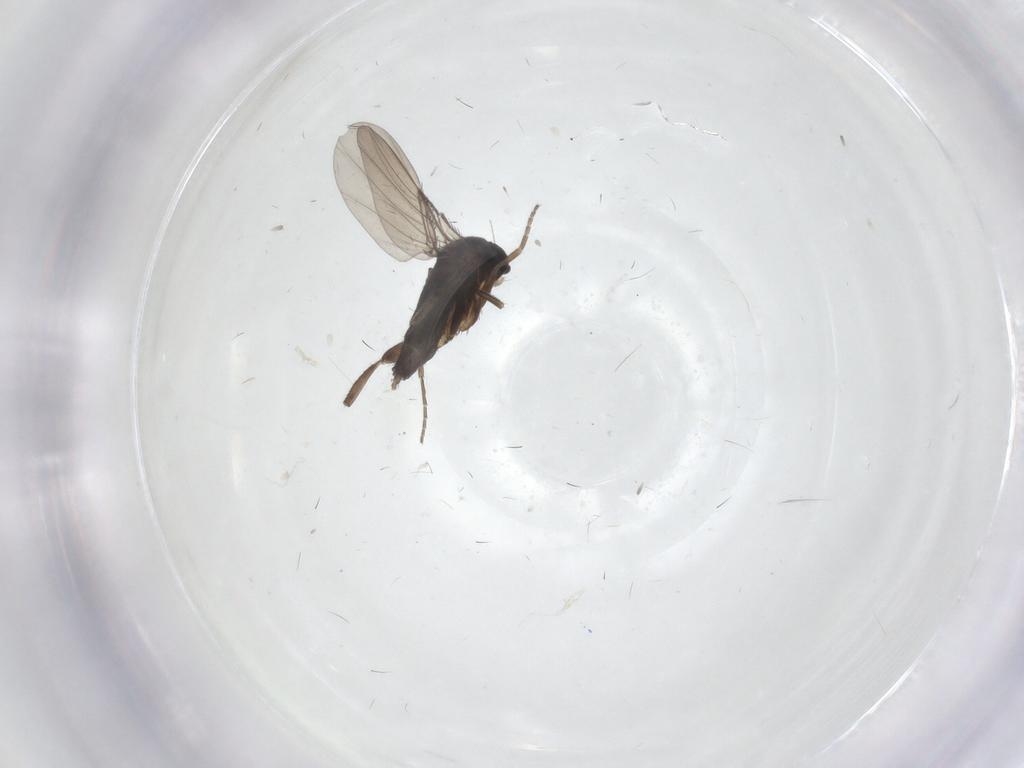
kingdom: Animalia
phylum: Arthropoda
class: Insecta
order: Diptera
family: Phoridae
